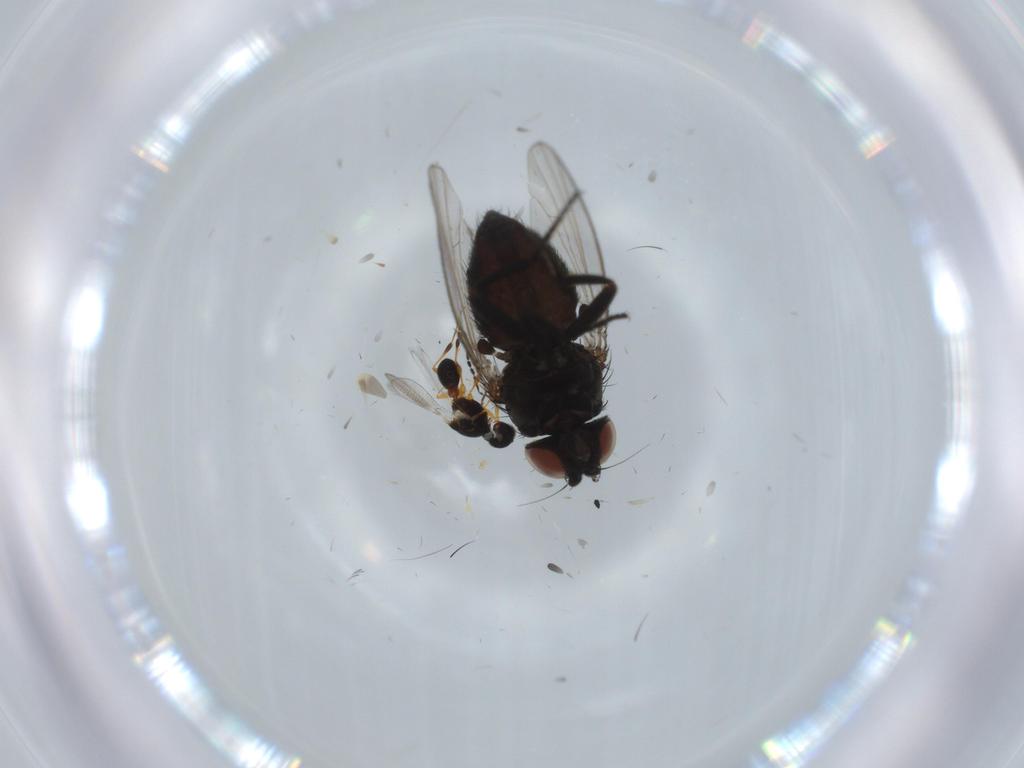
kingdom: Animalia
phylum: Arthropoda
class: Insecta
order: Diptera
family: Milichiidae
